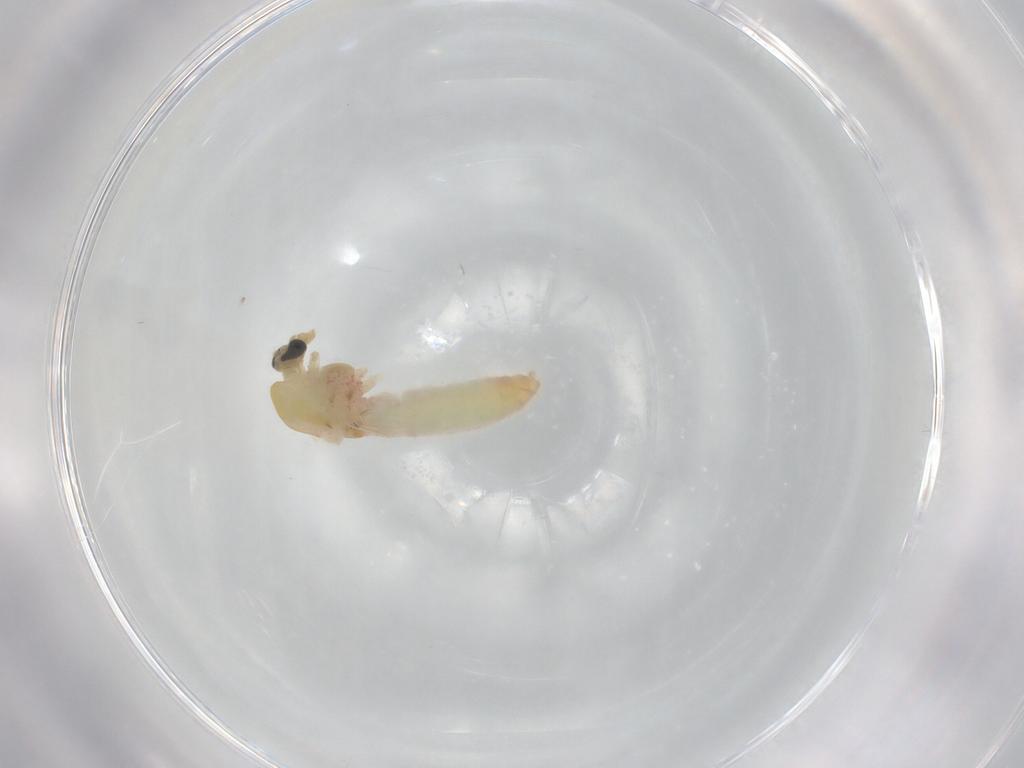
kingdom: Animalia
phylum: Arthropoda
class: Insecta
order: Diptera
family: Chironomidae
